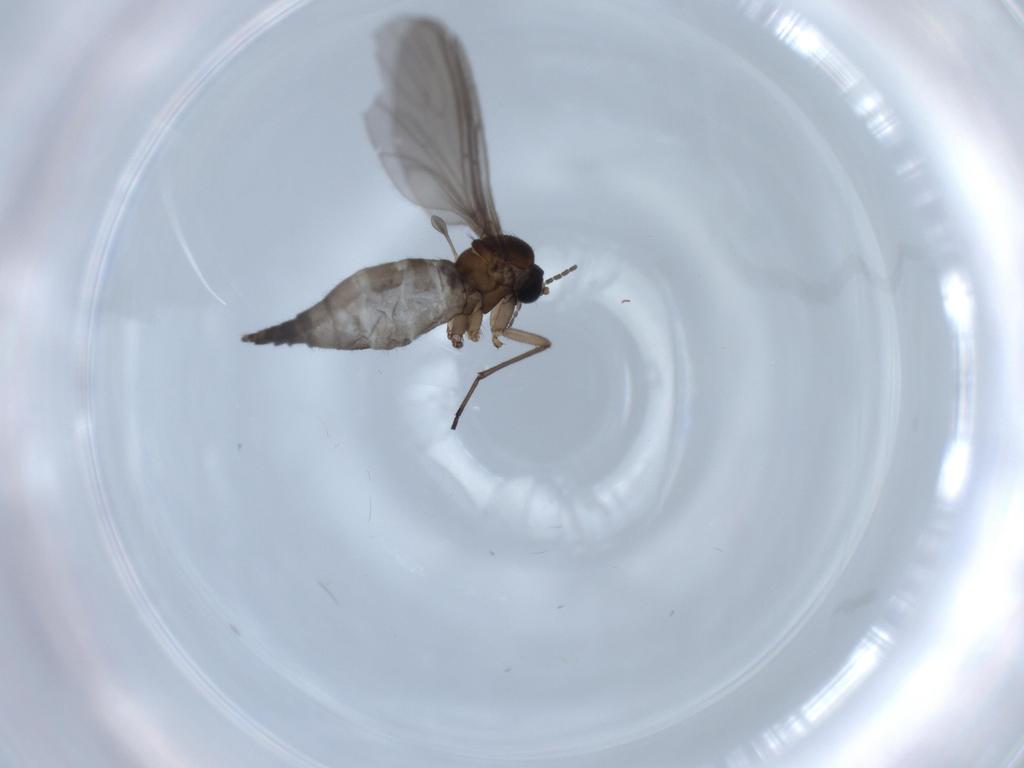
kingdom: Animalia
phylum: Arthropoda
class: Insecta
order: Diptera
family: Sciaridae
